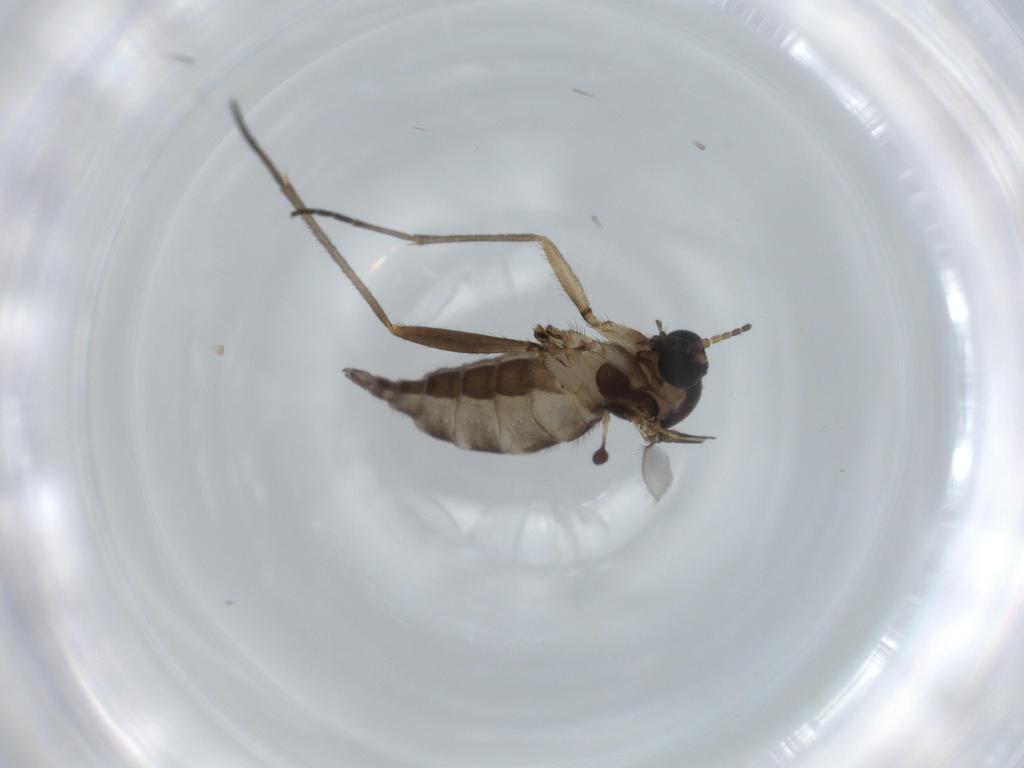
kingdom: Animalia
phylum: Arthropoda
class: Insecta
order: Diptera
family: Sciaridae
